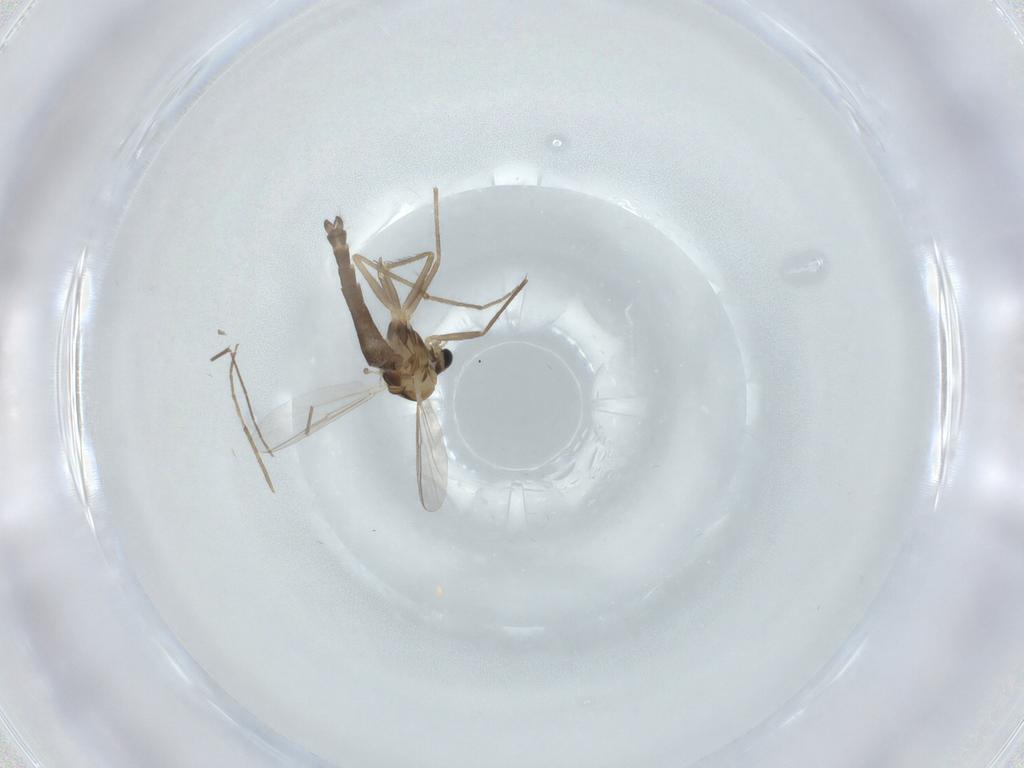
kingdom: Animalia
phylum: Arthropoda
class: Insecta
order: Diptera
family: Chironomidae
